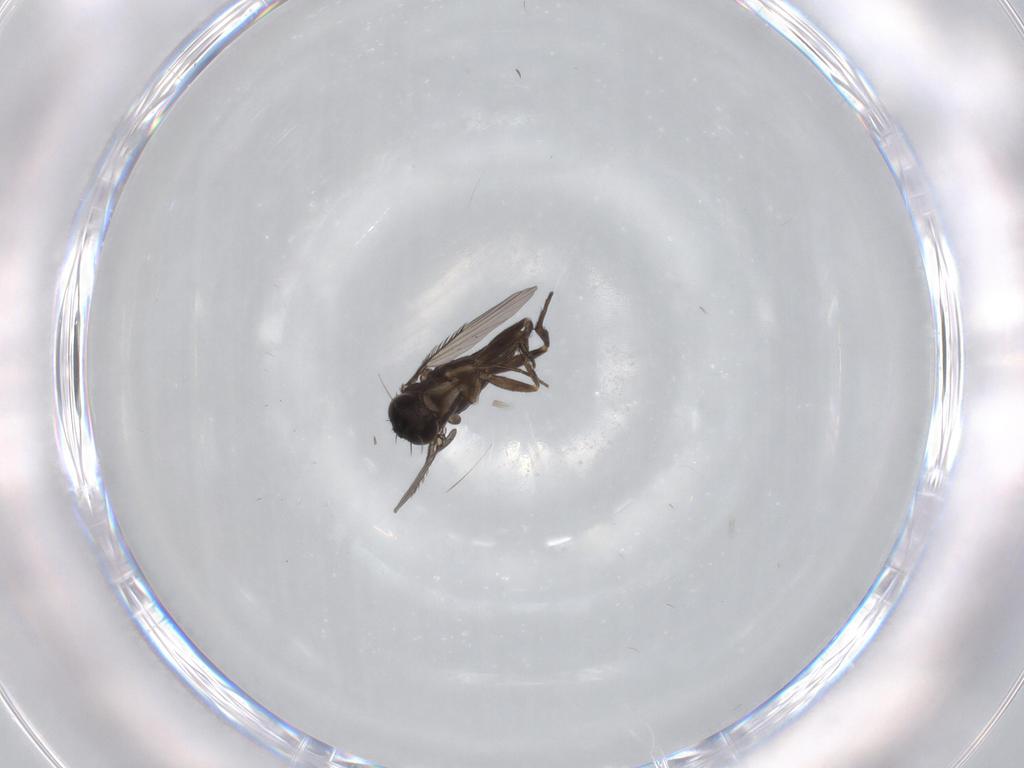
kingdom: Animalia
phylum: Arthropoda
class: Insecta
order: Diptera
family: Phoridae
